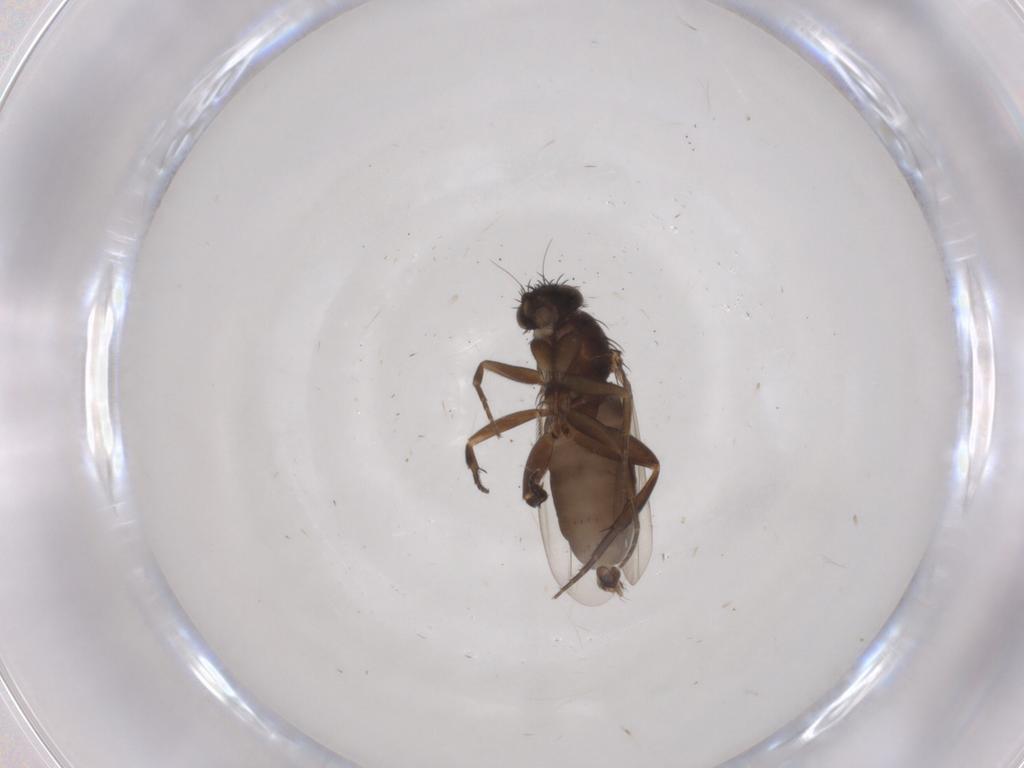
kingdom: Animalia
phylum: Arthropoda
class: Insecta
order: Diptera
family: Phoridae
